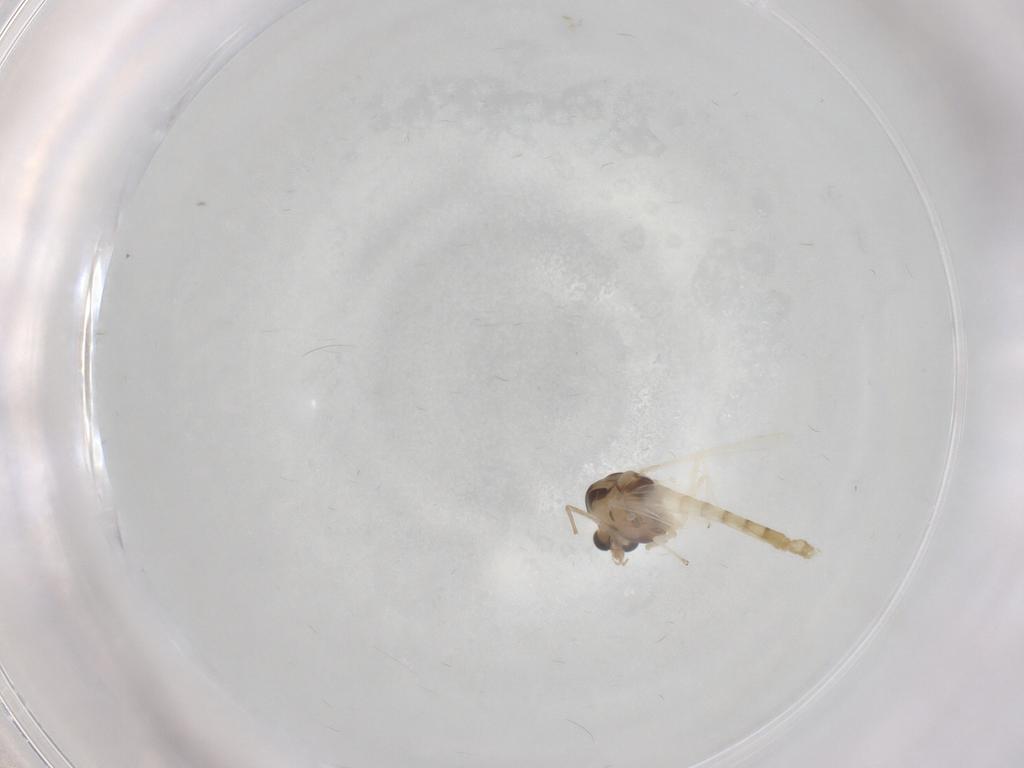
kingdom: Animalia
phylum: Arthropoda
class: Insecta
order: Diptera
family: Chironomidae
